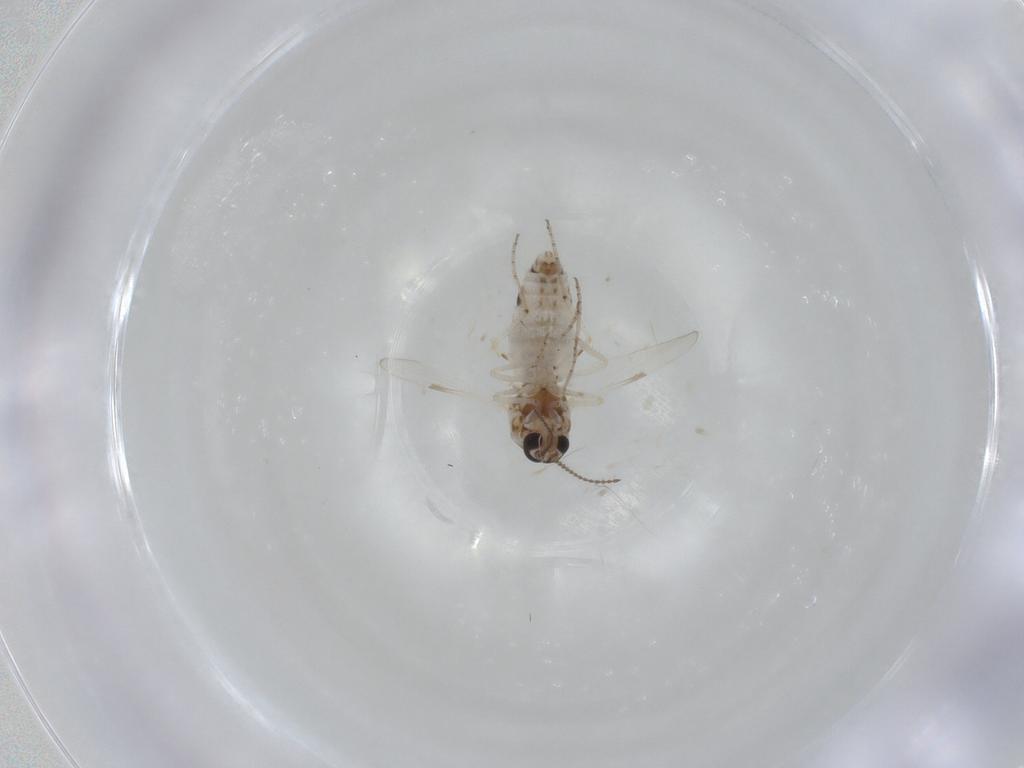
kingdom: Animalia
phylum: Arthropoda
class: Insecta
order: Diptera
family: Ceratopogonidae
